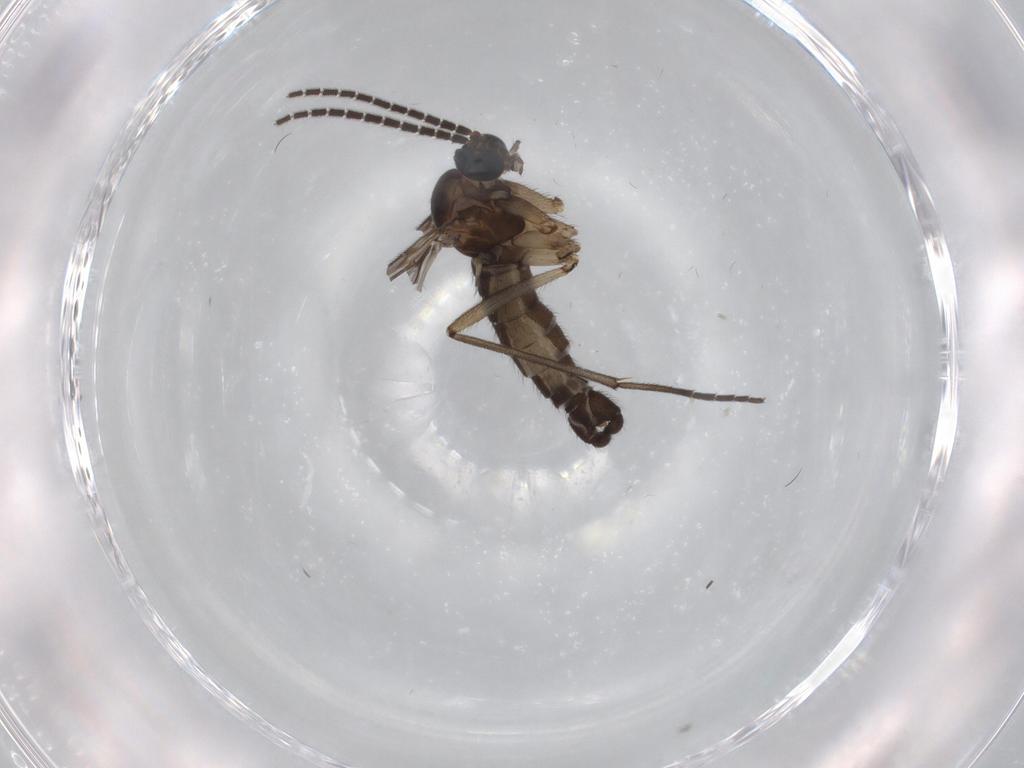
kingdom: Animalia
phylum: Arthropoda
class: Insecta
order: Diptera
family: Sciaridae
